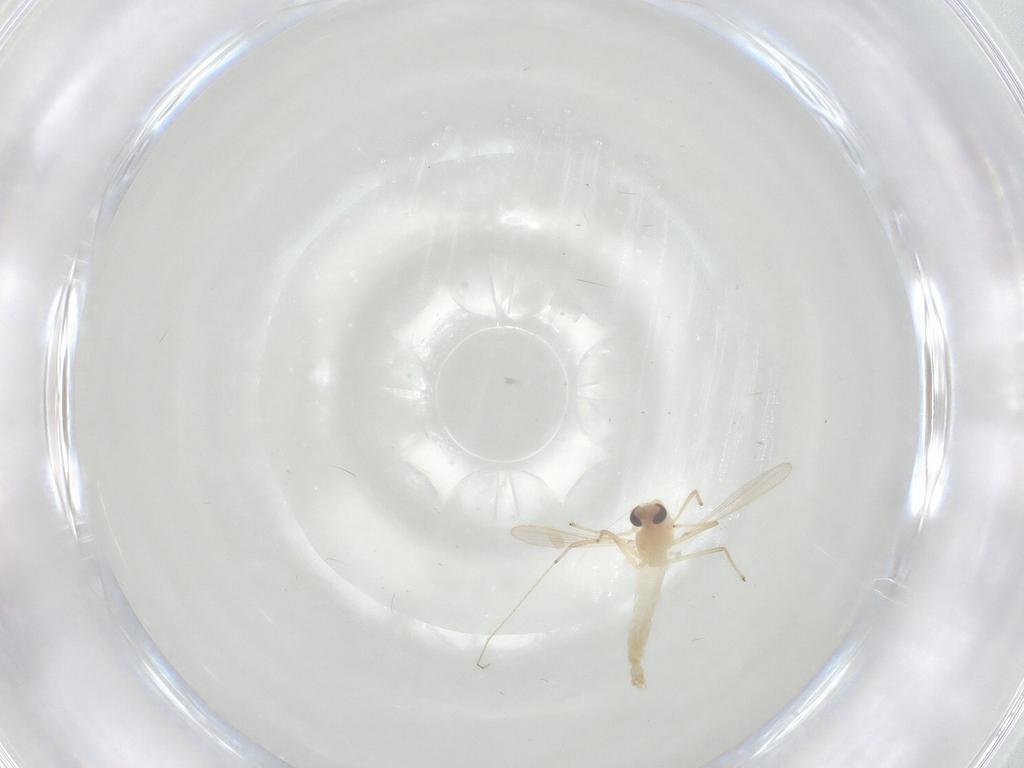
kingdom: Animalia
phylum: Arthropoda
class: Insecta
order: Diptera
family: Chironomidae
